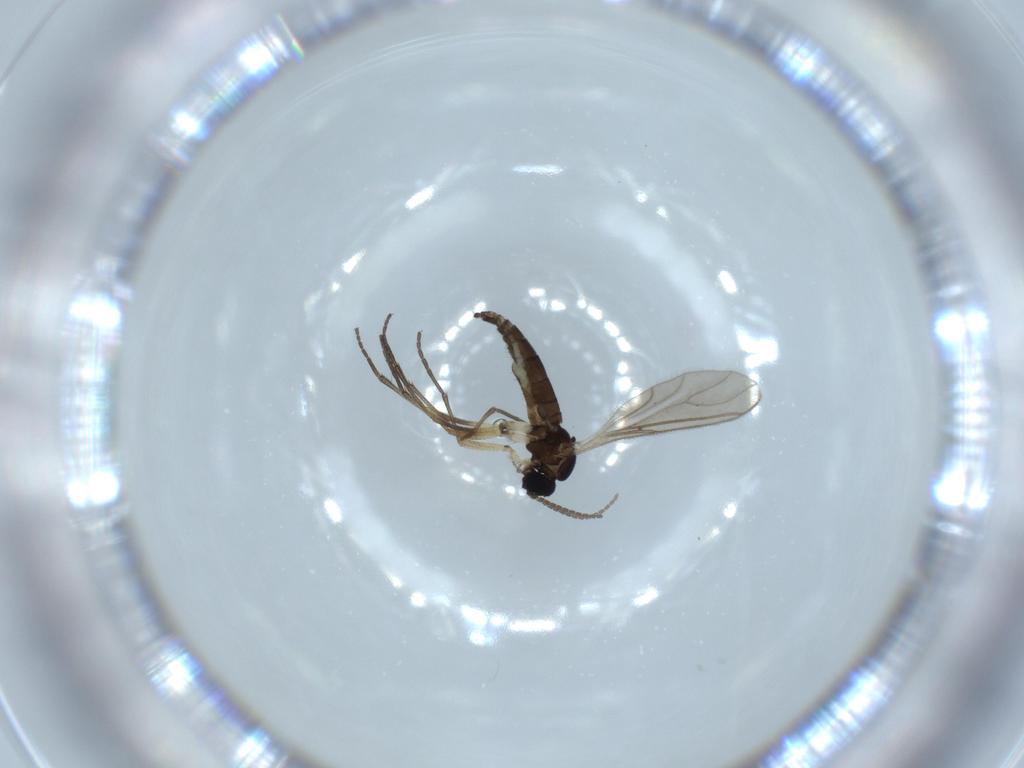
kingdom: Animalia
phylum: Arthropoda
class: Insecta
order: Diptera
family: Sciaridae
